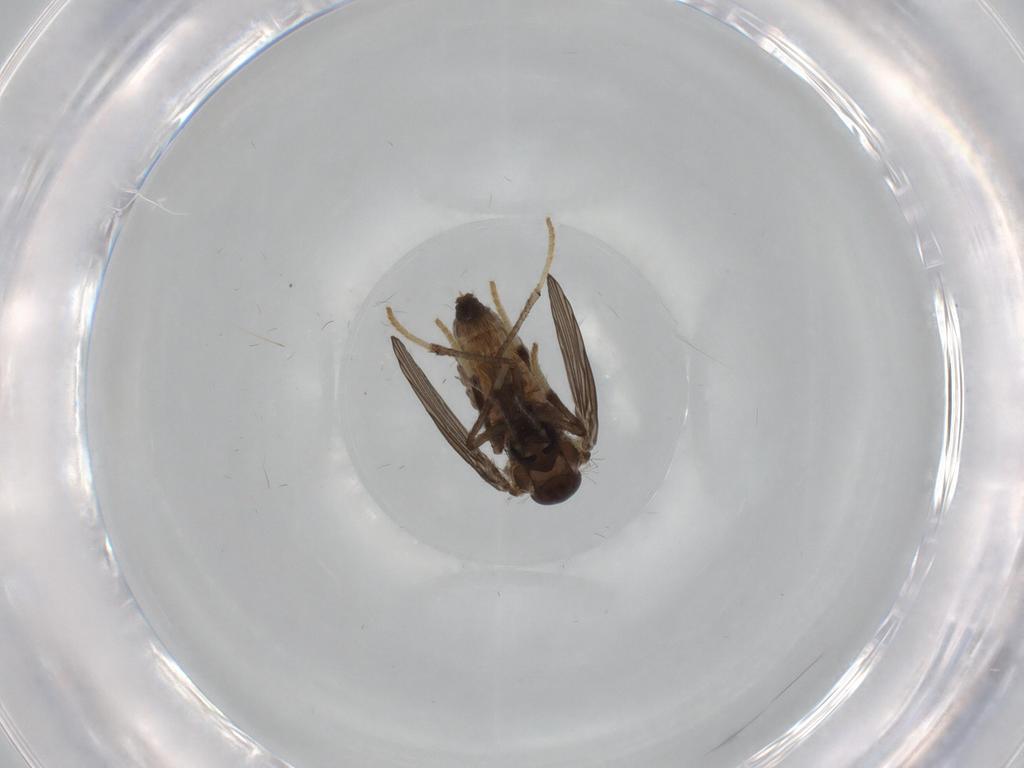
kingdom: Animalia
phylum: Arthropoda
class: Insecta
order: Diptera
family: Psychodidae
